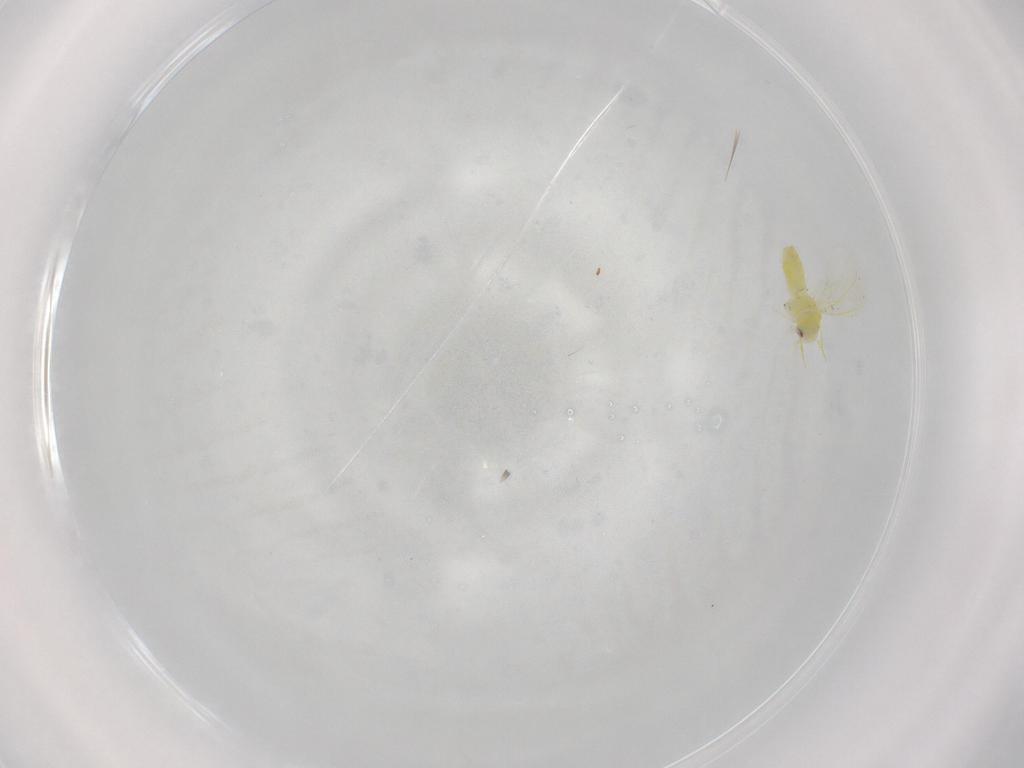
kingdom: Animalia
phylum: Arthropoda
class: Insecta
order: Hemiptera
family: Aleyrodidae
